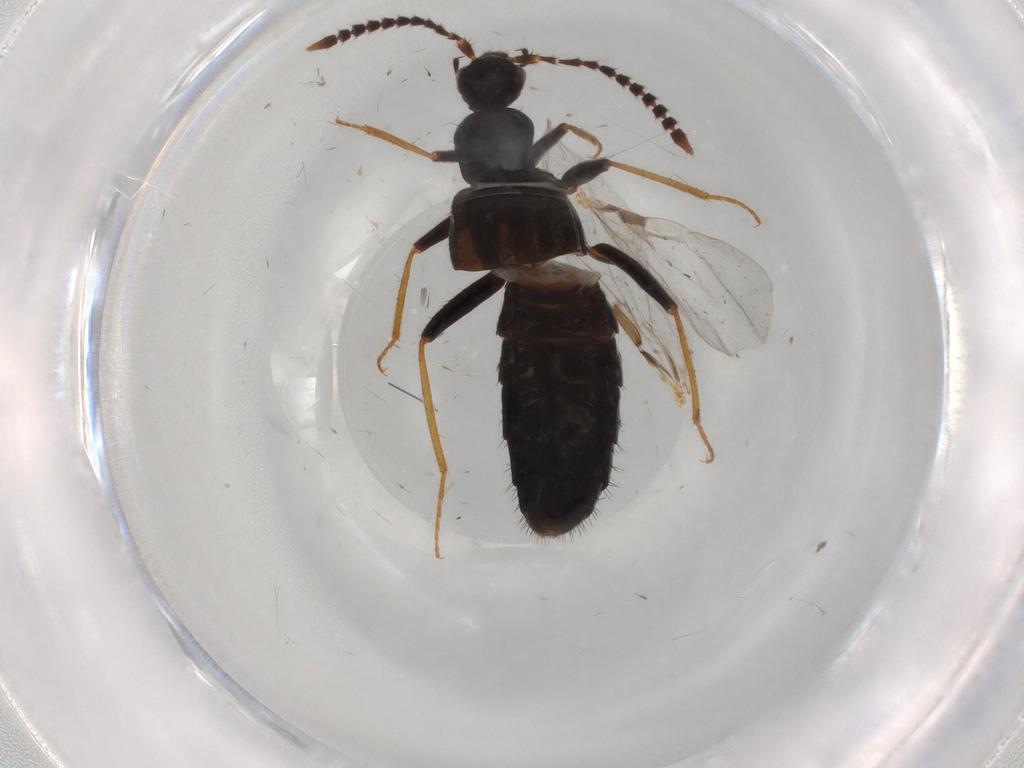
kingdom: Animalia
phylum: Arthropoda
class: Insecta
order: Coleoptera
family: Staphylinidae
